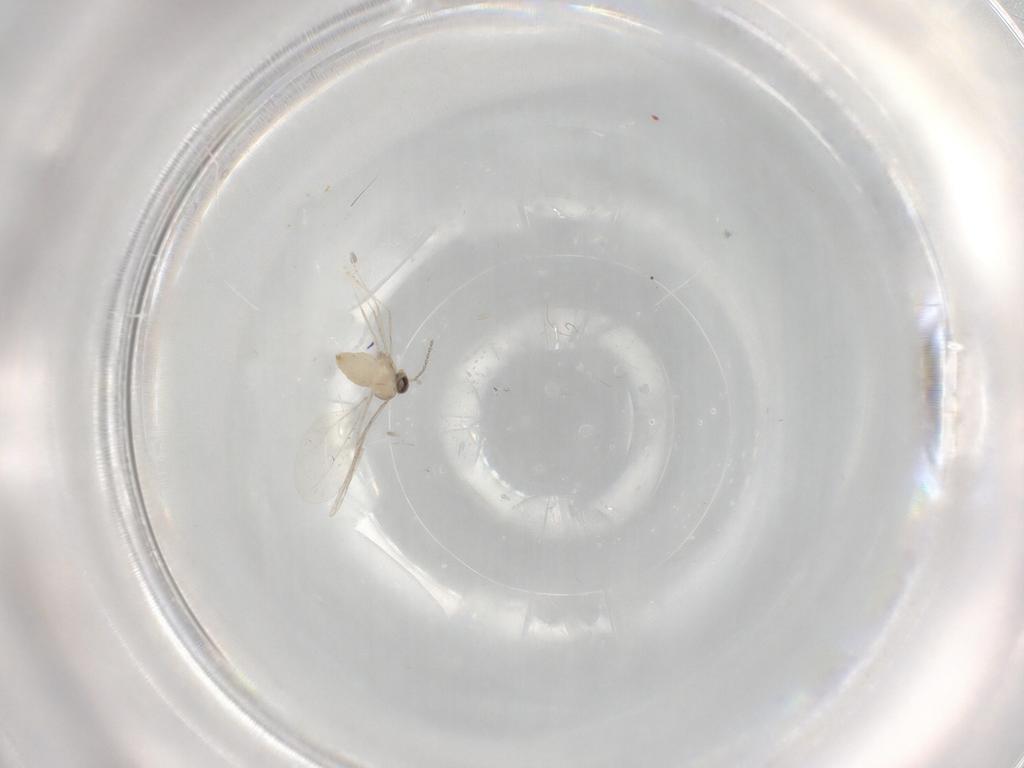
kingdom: Animalia
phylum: Arthropoda
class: Insecta
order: Diptera
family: Cecidomyiidae
